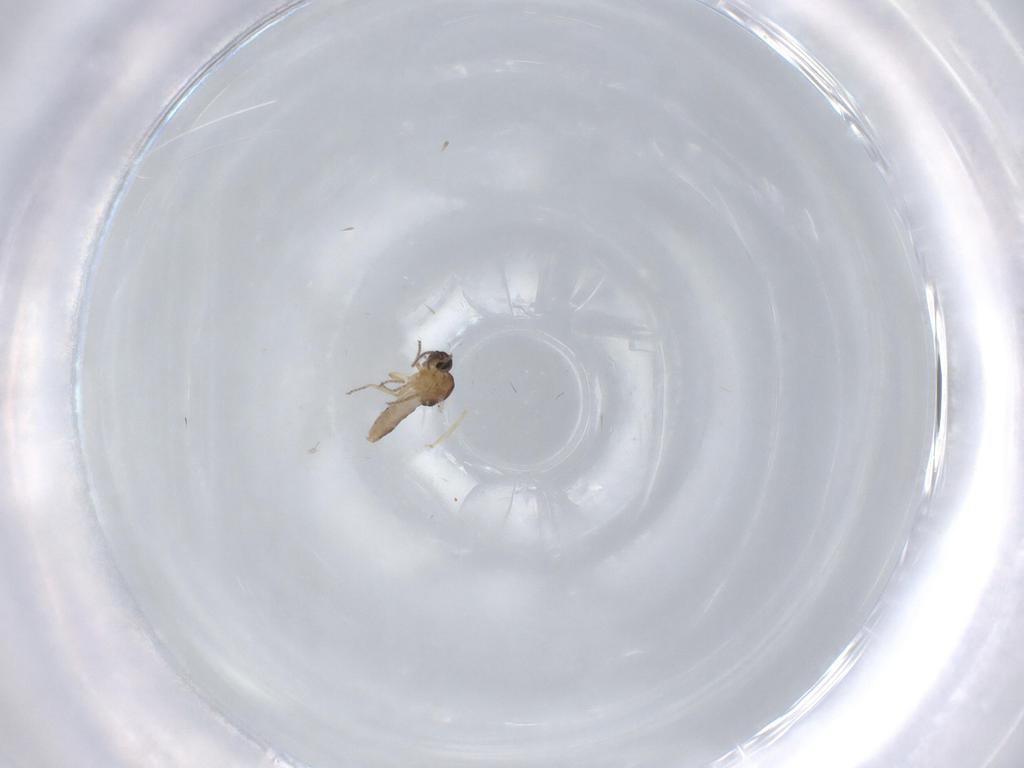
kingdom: Animalia
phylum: Arthropoda
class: Insecta
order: Diptera
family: Ceratopogonidae
